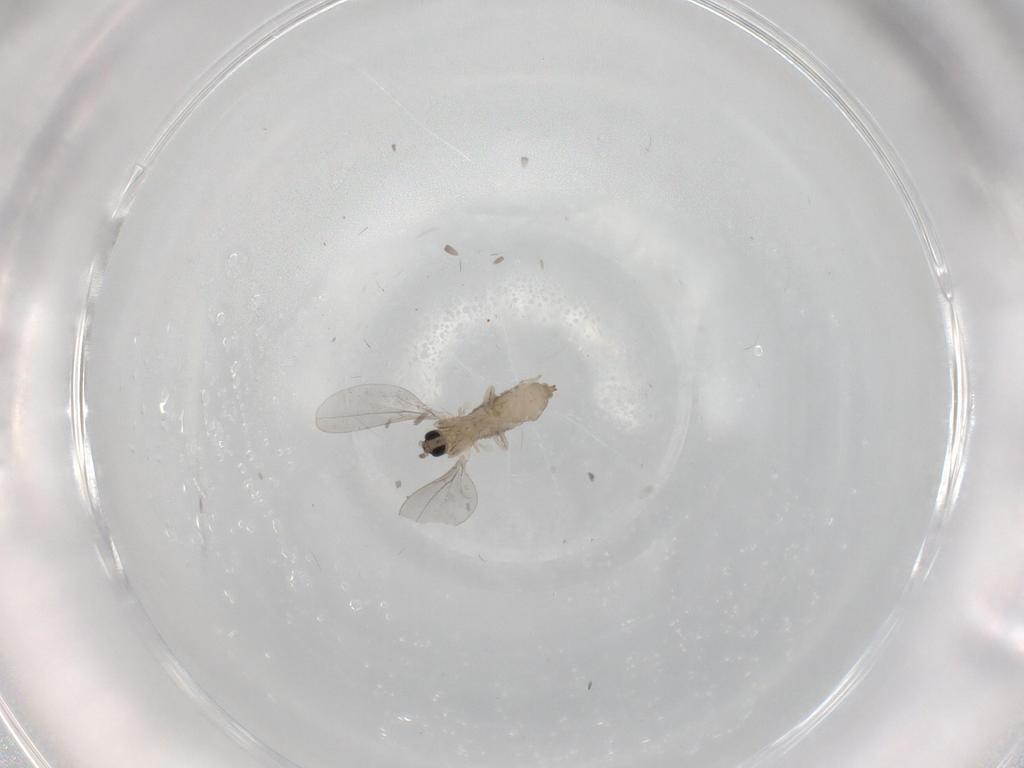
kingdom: Animalia
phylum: Arthropoda
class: Insecta
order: Diptera
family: Cecidomyiidae
